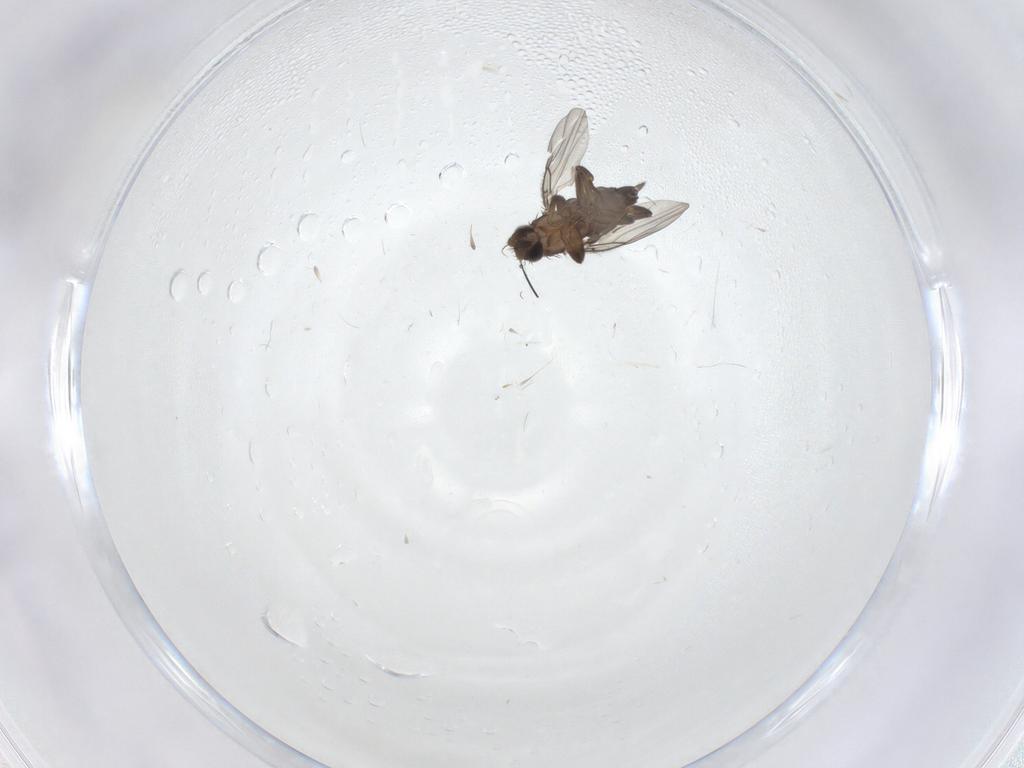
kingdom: Animalia
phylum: Arthropoda
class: Insecta
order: Diptera
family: Phoridae
